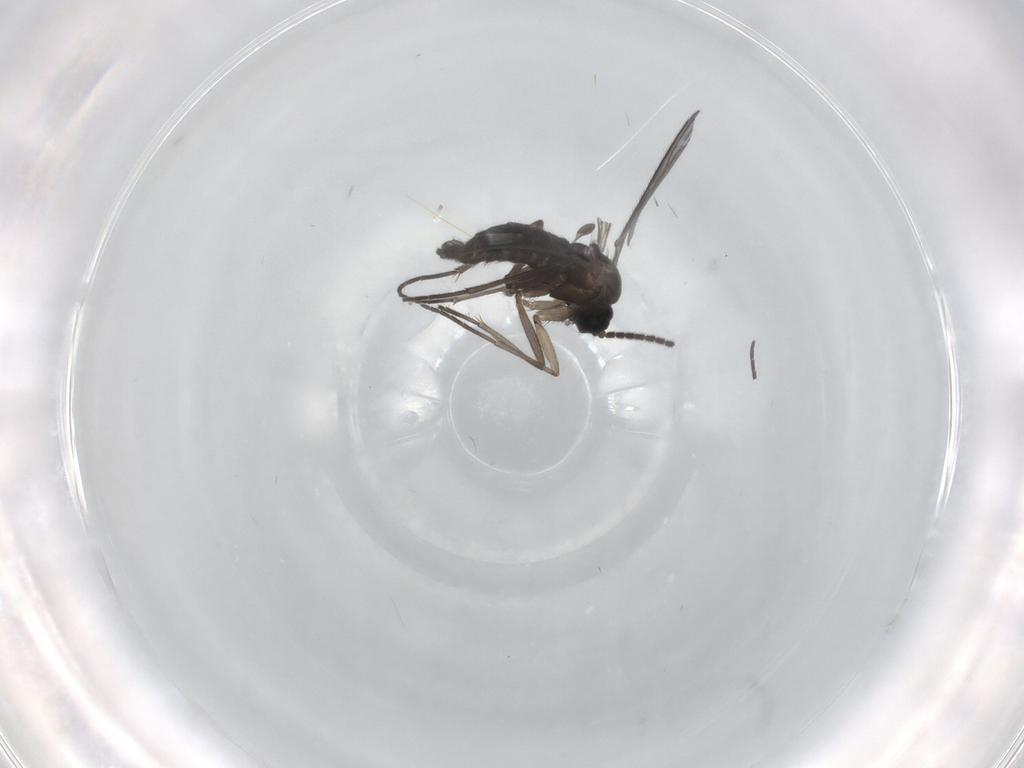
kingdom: Animalia
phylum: Arthropoda
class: Insecta
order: Diptera
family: Sciaridae
